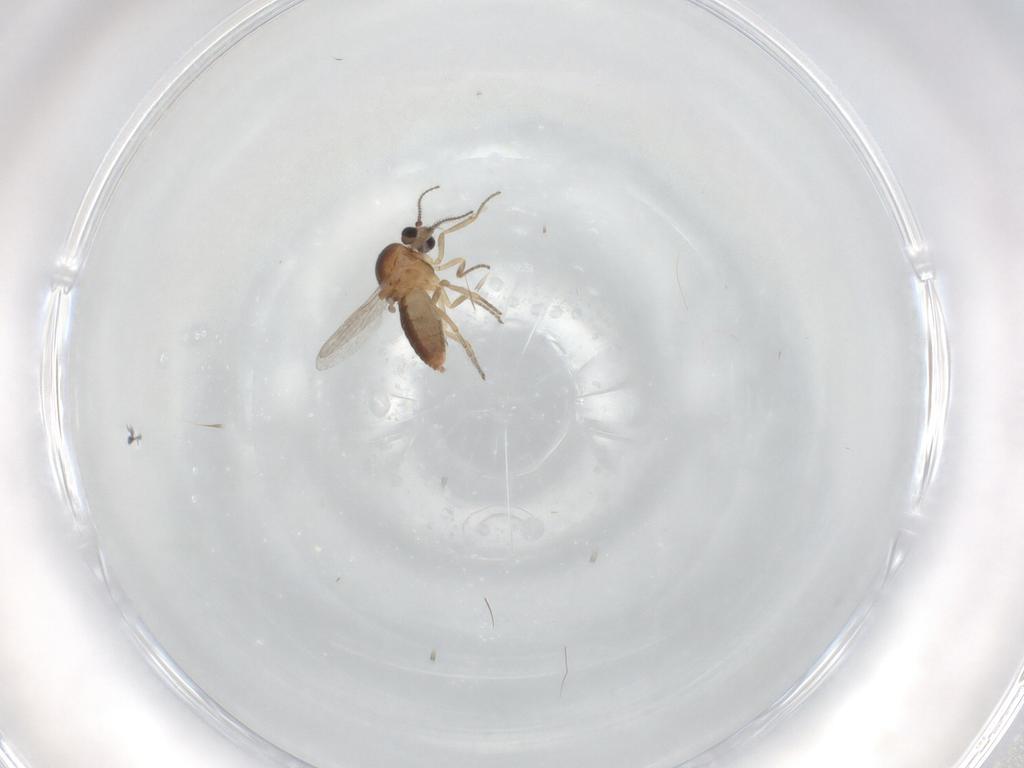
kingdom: Animalia
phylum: Arthropoda
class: Insecta
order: Diptera
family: Ceratopogonidae
